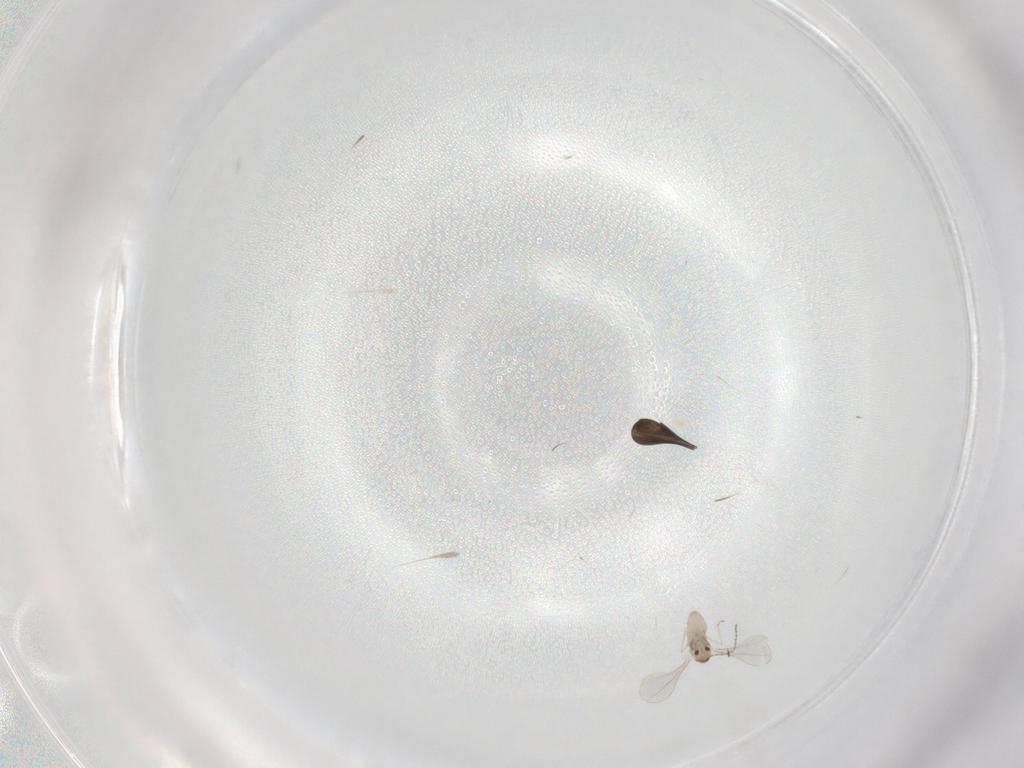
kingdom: Animalia
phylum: Arthropoda
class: Insecta
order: Diptera
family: Sciaridae
